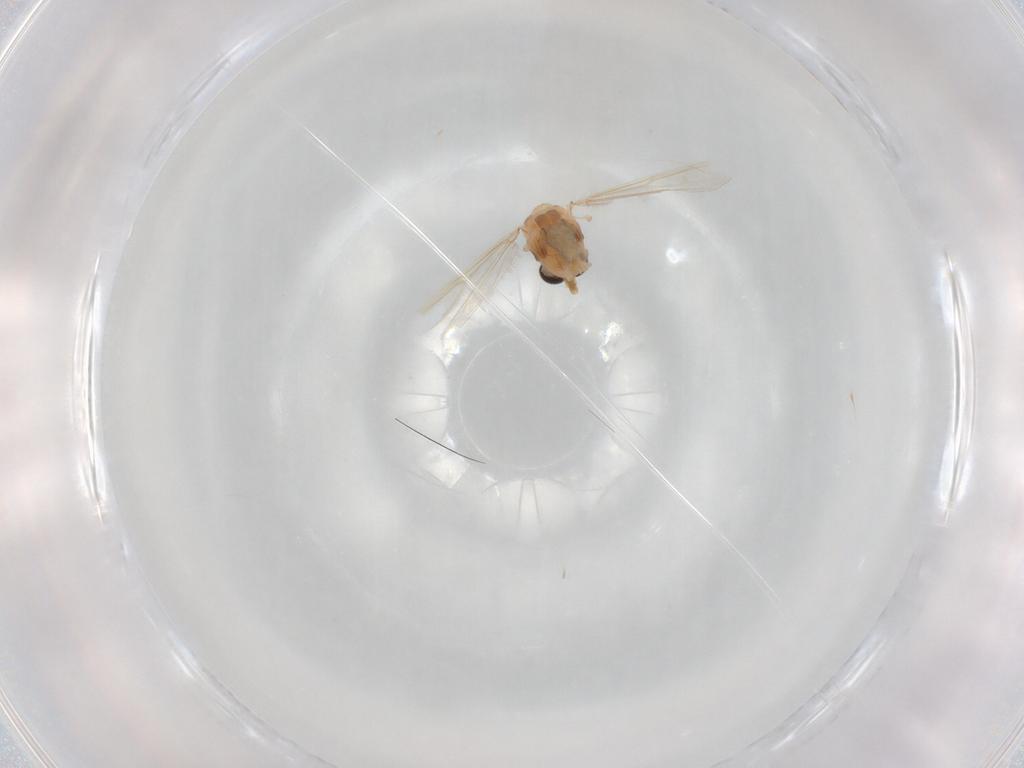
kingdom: Animalia
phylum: Arthropoda
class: Insecta
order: Diptera
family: Chironomidae
